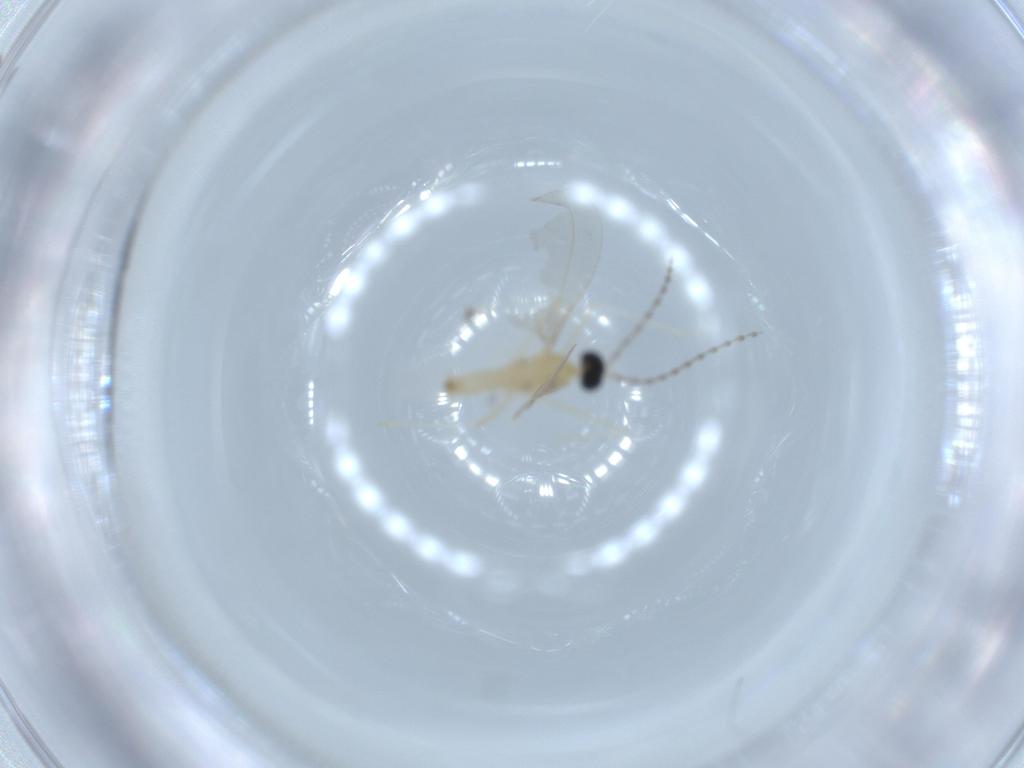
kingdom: Animalia
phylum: Arthropoda
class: Insecta
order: Diptera
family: Cecidomyiidae
